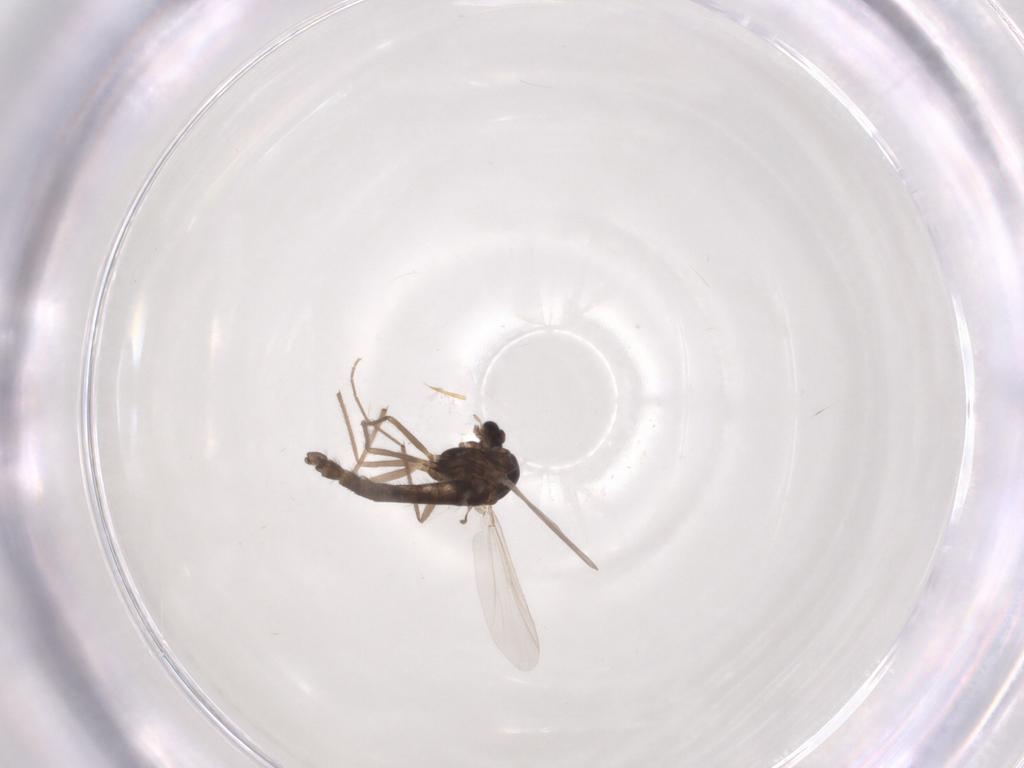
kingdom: Animalia
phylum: Arthropoda
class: Insecta
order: Diptera
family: Chironomidae
